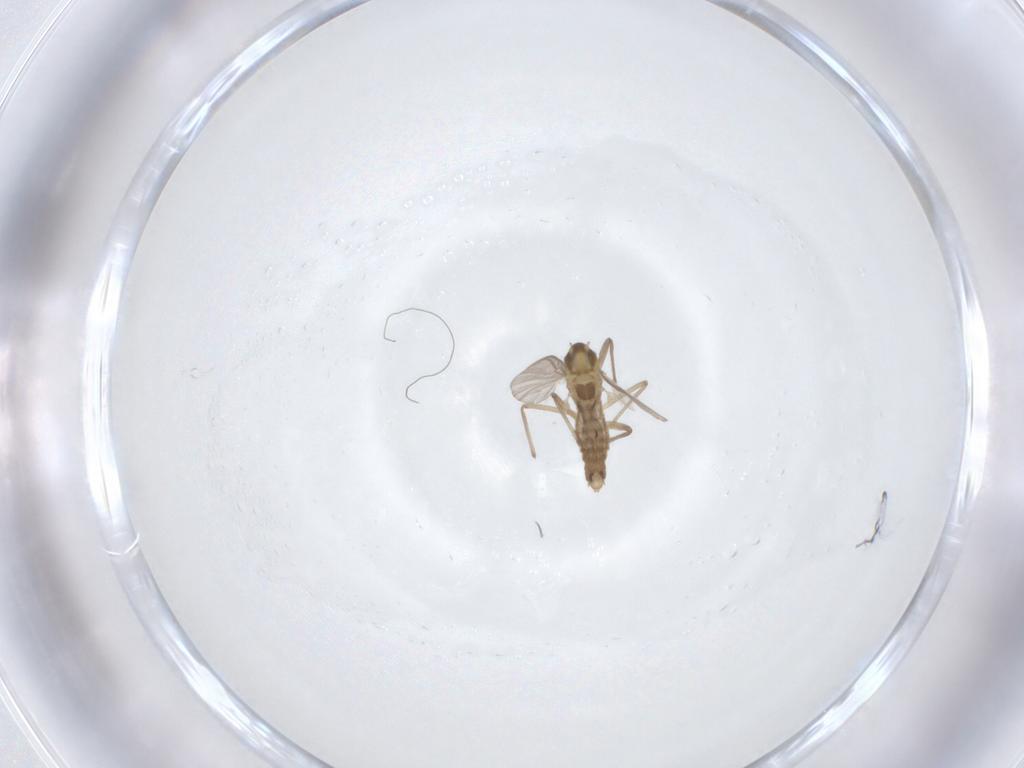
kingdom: Animalia
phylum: Arthropoda
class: Insecta
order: Diptera
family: Chironomidae
